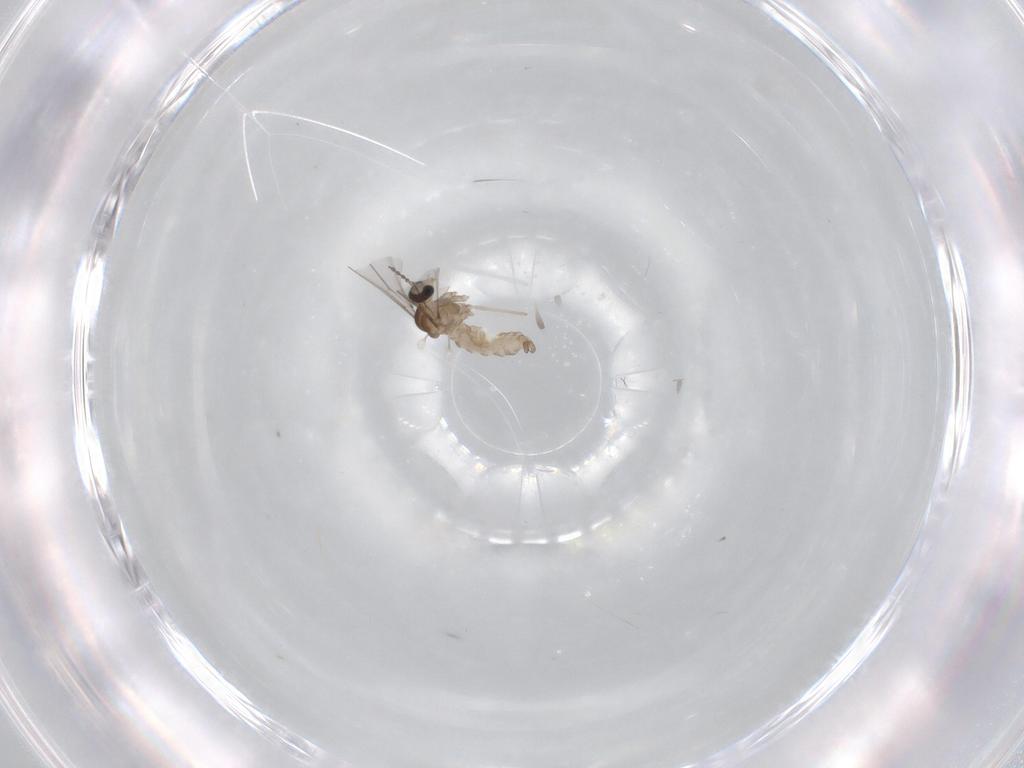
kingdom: Animalia
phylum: Arthropoda
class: Insecta
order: Diptera
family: Cecidomyiidae
